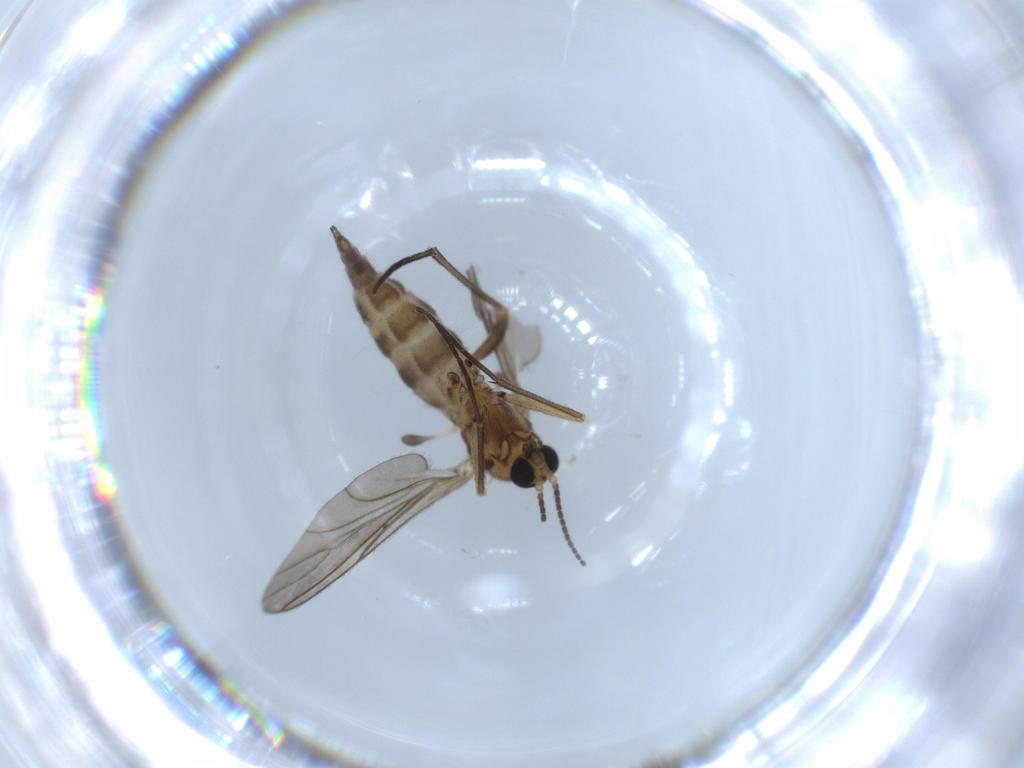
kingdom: Animalia
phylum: Arthropoda
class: Insecta
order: Diptera
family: Sciaridae
